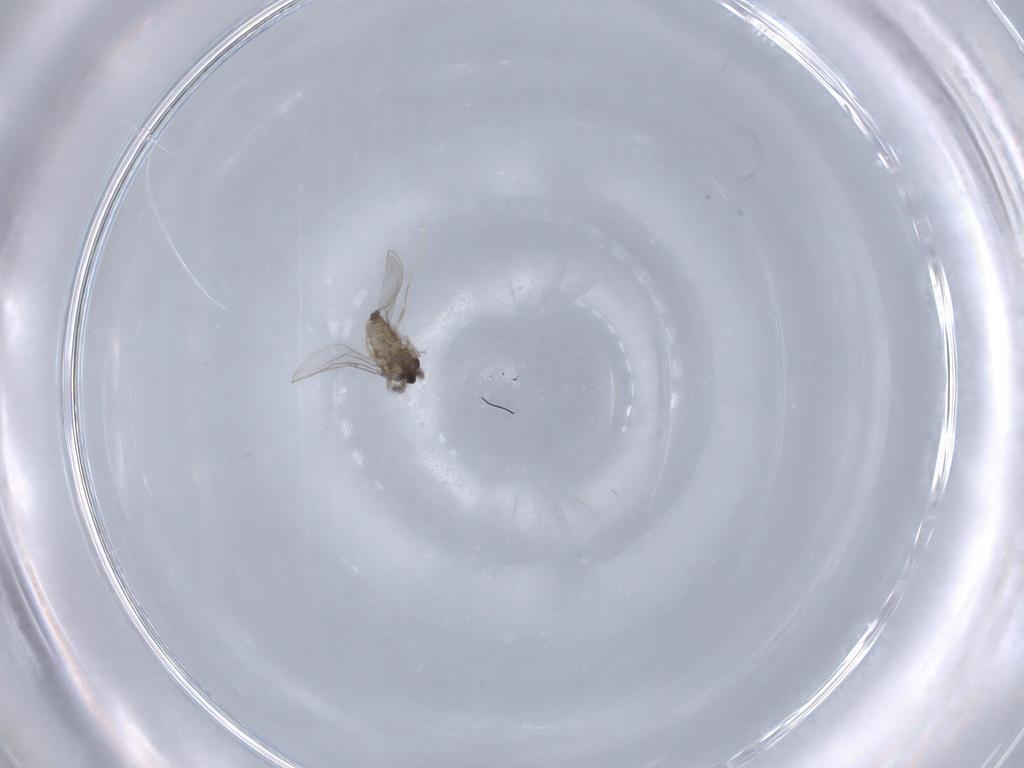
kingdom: Animalia
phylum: Arthropoda
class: Insecta
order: Diptera
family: Cecidomyiidae
